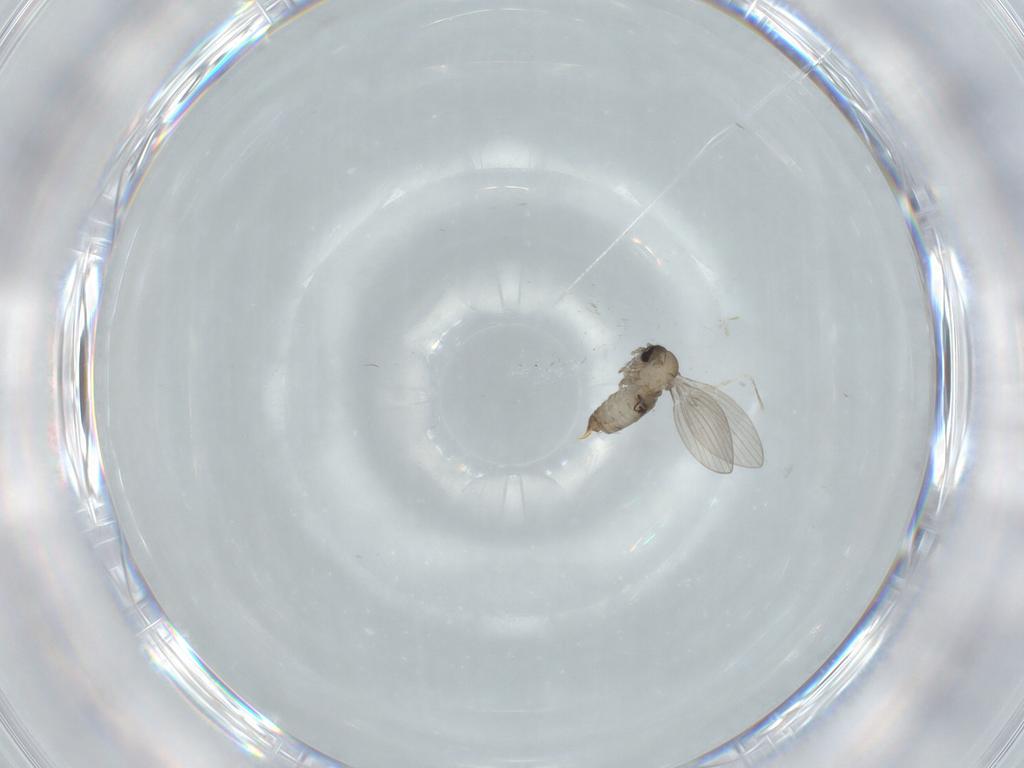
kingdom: Animalia
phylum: Arthropoda
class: Insecta
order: Diptera
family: Psychodidae
